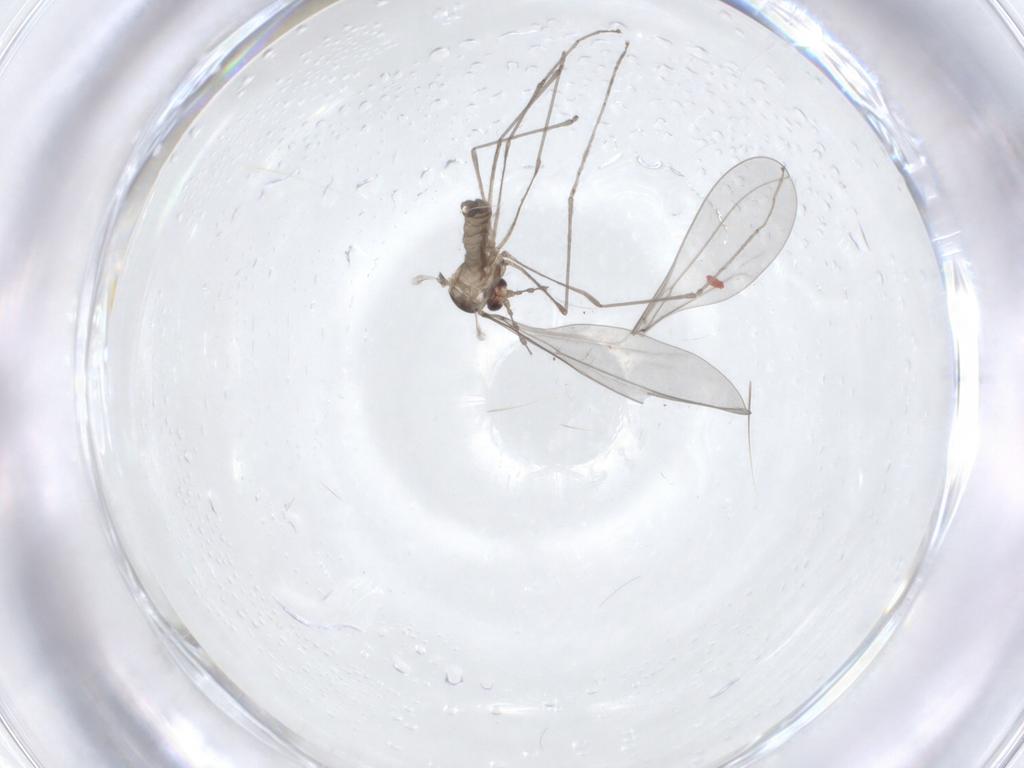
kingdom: Animalia
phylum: Arthropoda
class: Insecta
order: Diptera
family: Cecidomyiidae
